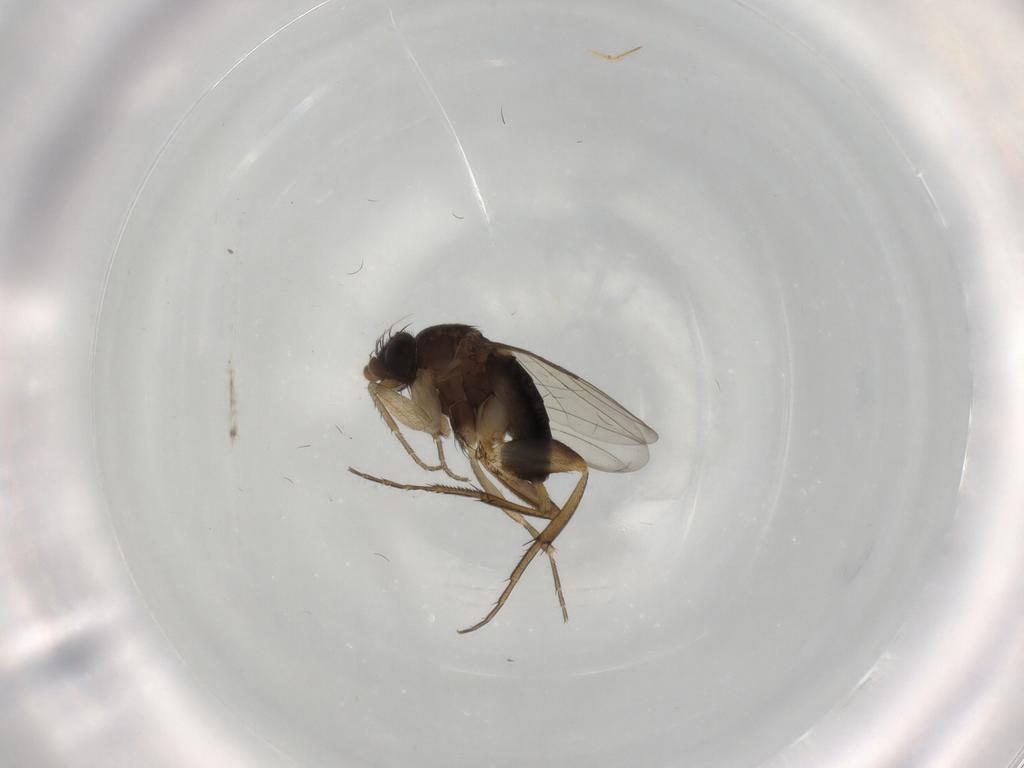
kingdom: Animalia
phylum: Arthropoda
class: Insecta
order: Diptera
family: Phoridae
